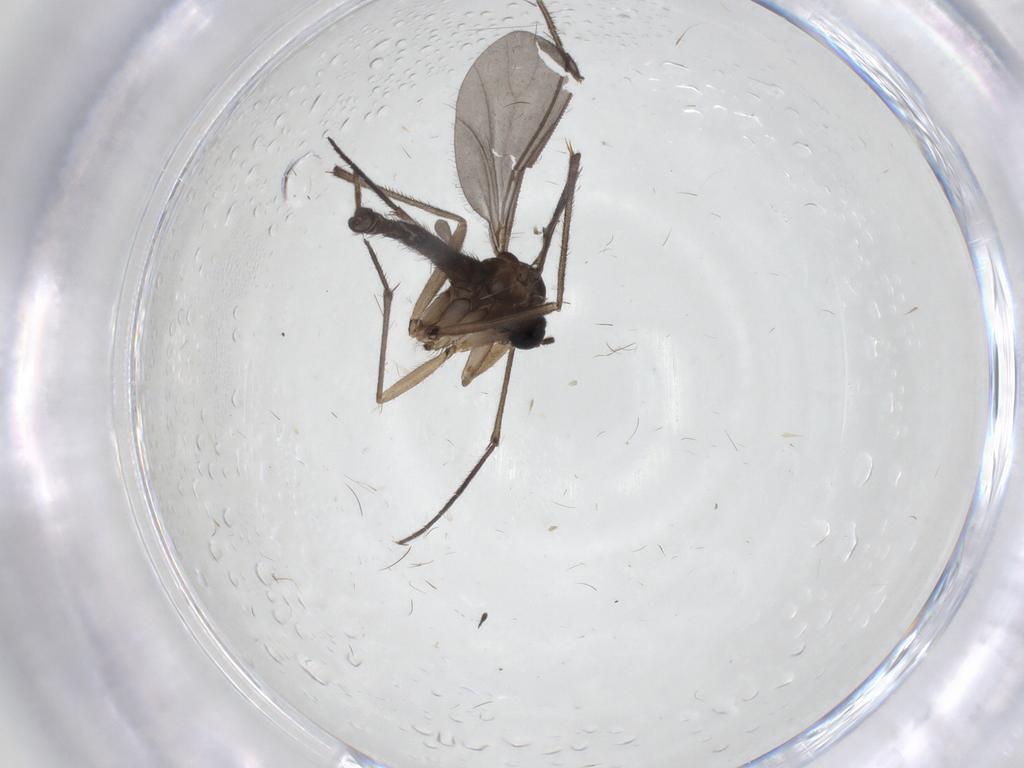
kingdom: Animalia
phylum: Arthropoda
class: Insecta
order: Diptera
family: Sciaridae
